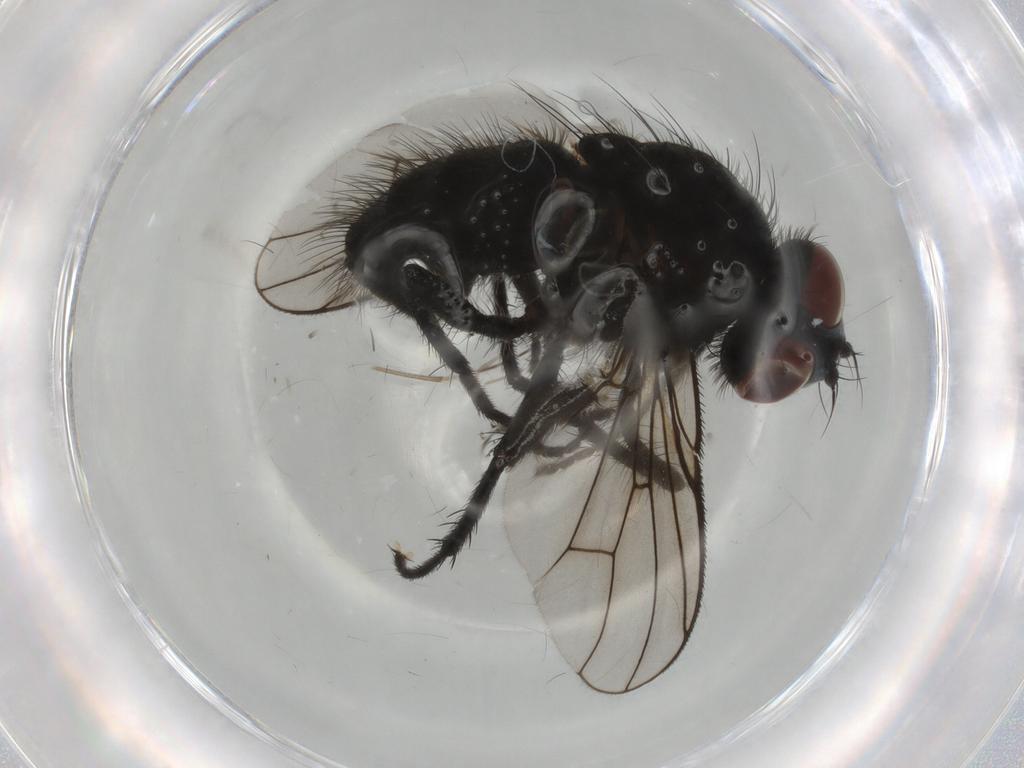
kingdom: Animalia
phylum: Arthropoda
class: Insecta
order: Diptera
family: Muscidae
